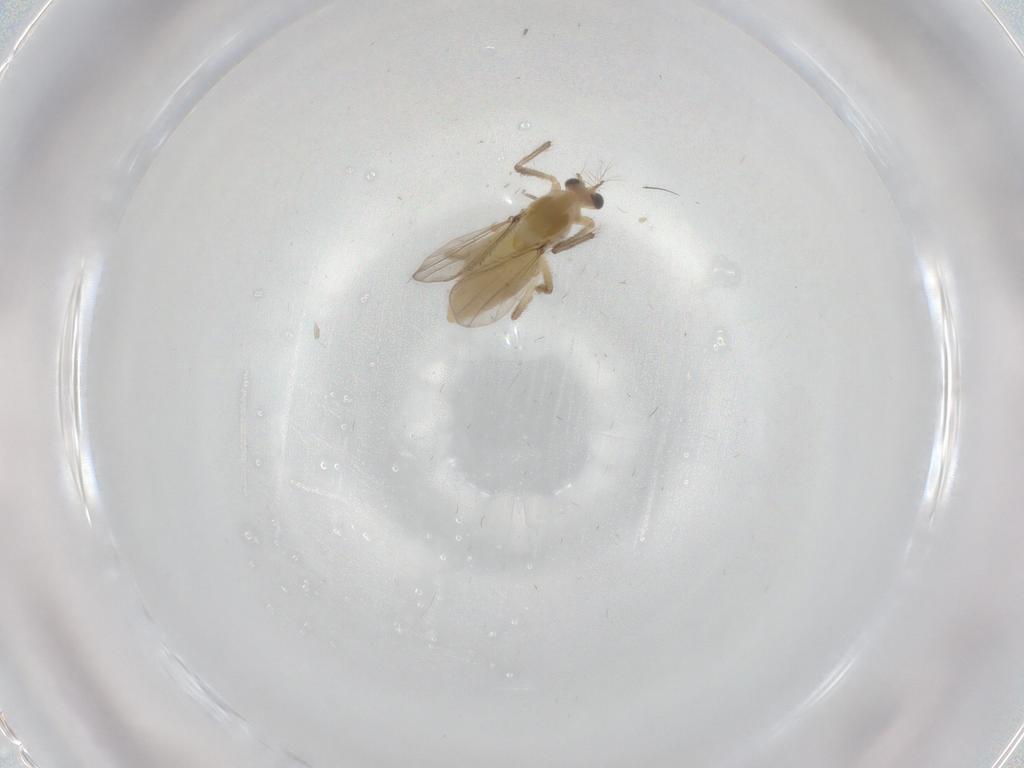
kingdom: Animalia
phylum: Arthropoda
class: Insecta
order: Diptera
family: Chironomidae
